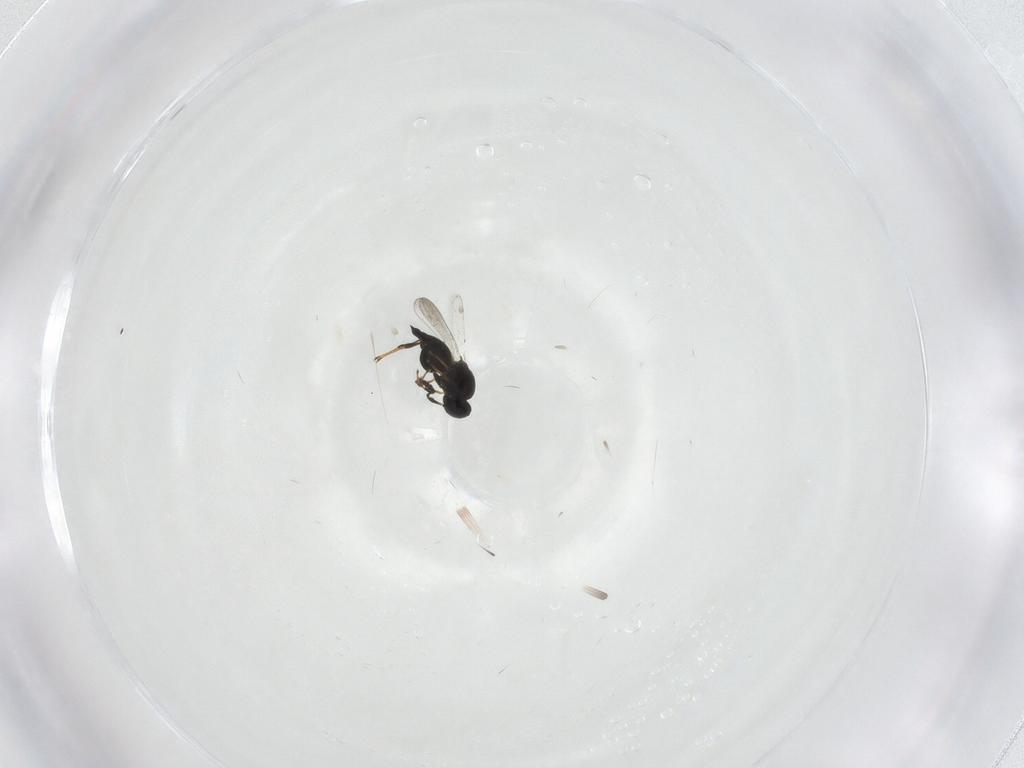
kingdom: Animalia
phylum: Arthropoda
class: Insecta
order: Hymenoptera
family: Platygastridae
